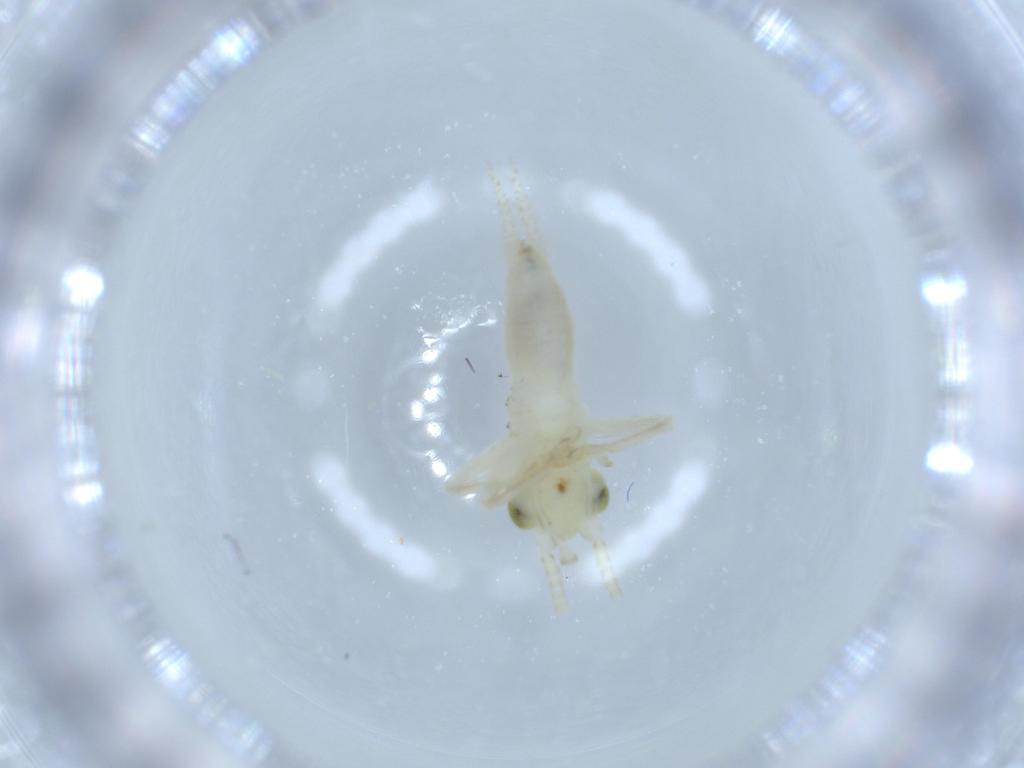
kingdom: Animalia
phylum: Arthropoda
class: Insecta
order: Orthoptera
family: Trigonidiidae
